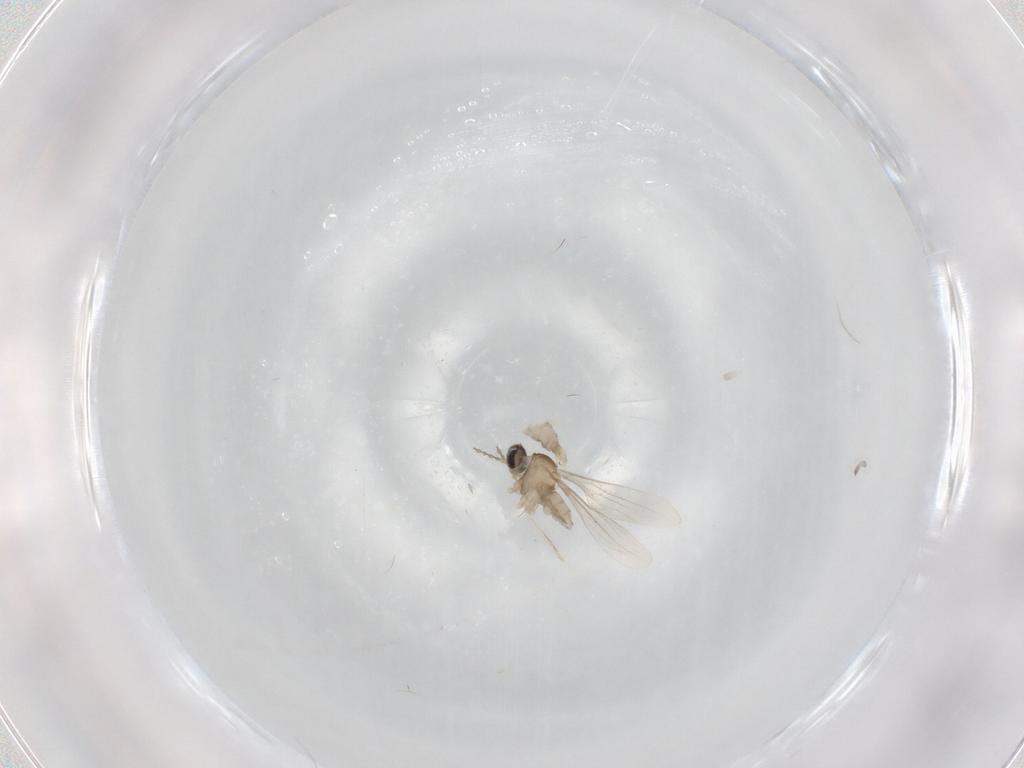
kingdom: Animalia
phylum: Arthropoda
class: Insecta
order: Diptera
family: Cecidomyiidae
